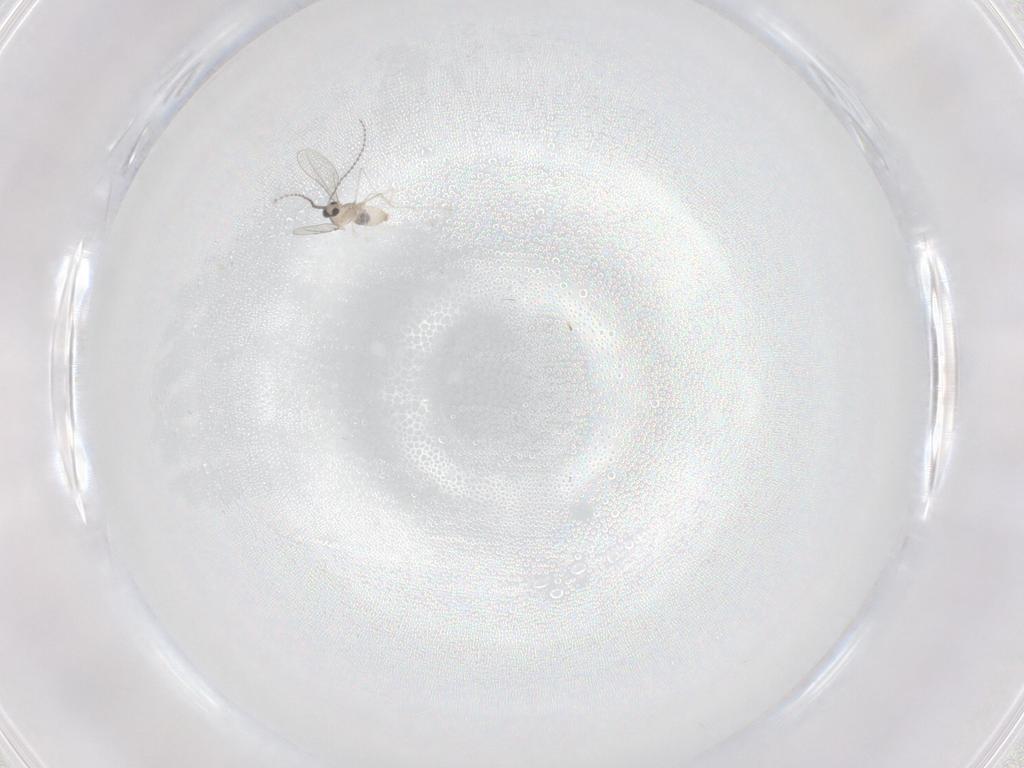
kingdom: Animalia
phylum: Arthropoda
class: Insecta
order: Diptera
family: Cecidomyiidae
